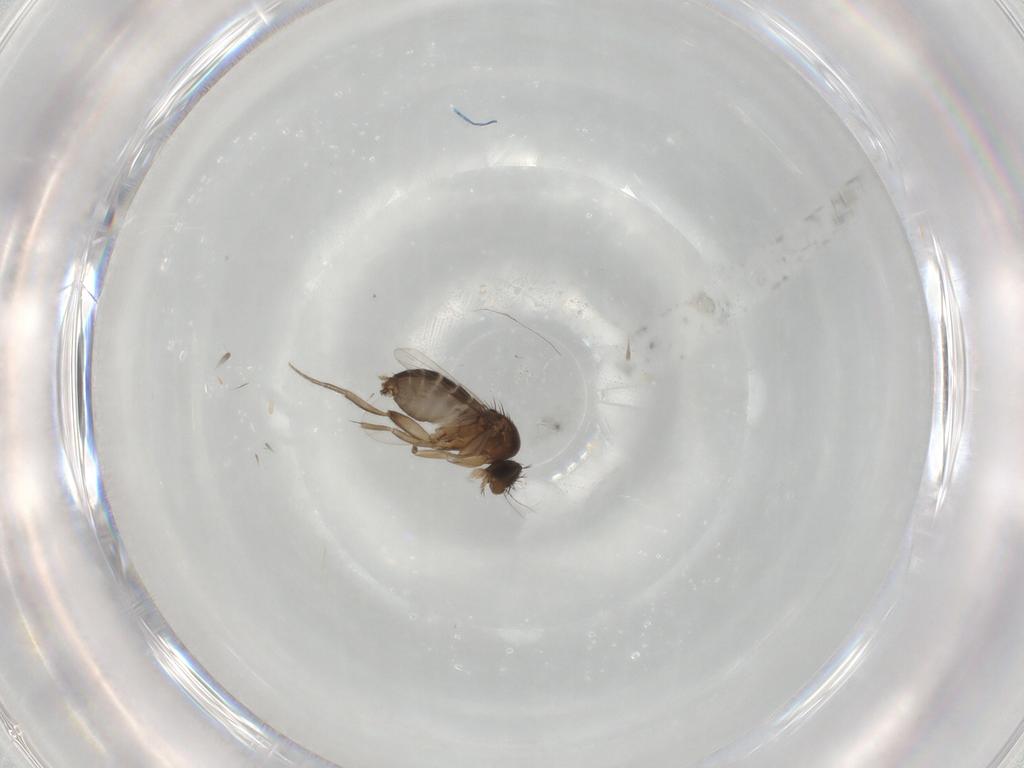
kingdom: Animalia
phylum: Arthropoda
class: Insecta
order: Diptera
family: Phoridae
